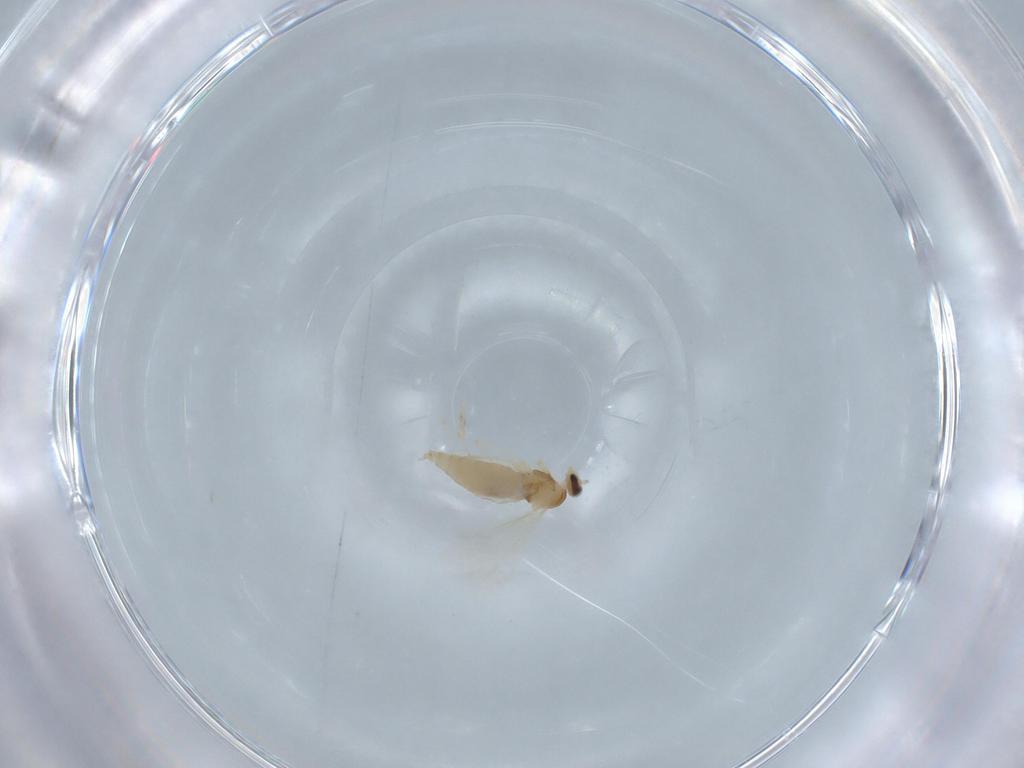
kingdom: Animalia
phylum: Arthropoda
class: Insecta
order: Diptera
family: Cecidomyiidae
